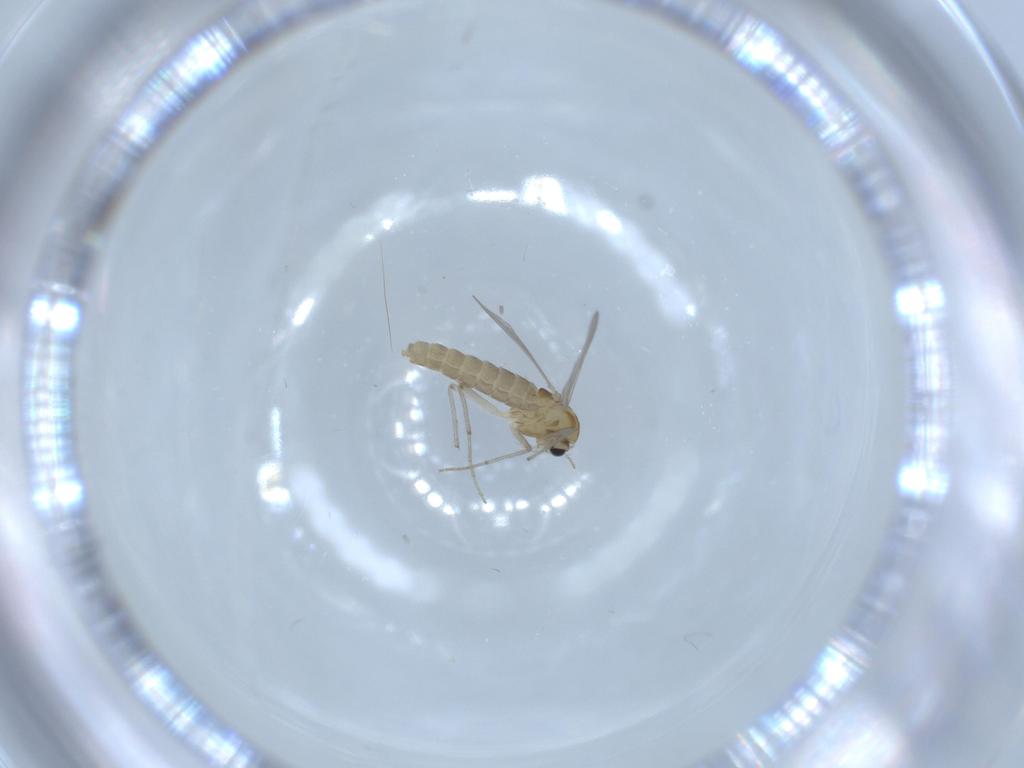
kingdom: Animalia
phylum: Arthropoda
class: Insecta
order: Diptera
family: Chironomidae
